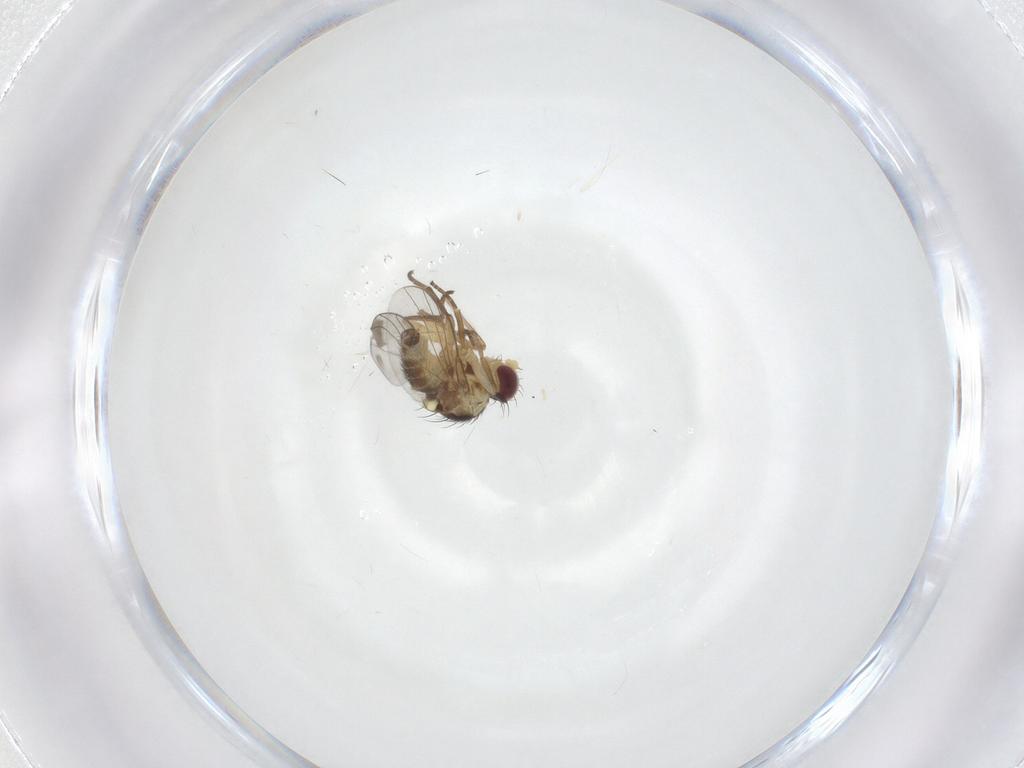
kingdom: Animalia
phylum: Arthropoda
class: Insecta
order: Diptera
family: Agromyzidae
